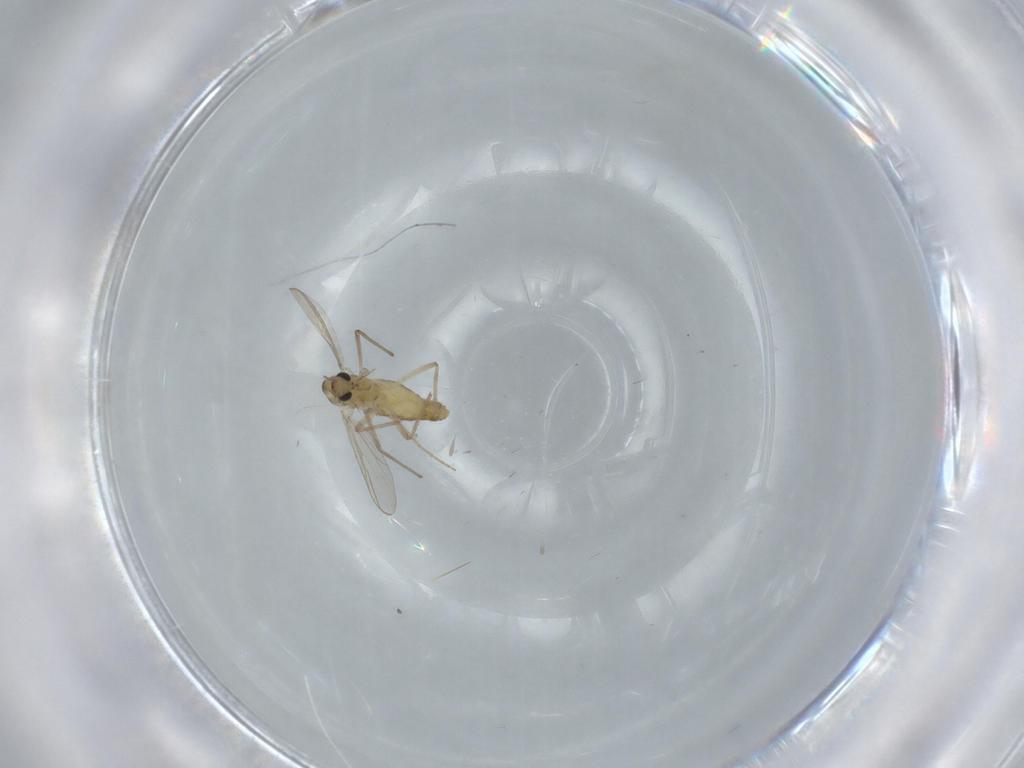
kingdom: Animalia
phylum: Arthropoda
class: Insecta
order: Diptera
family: Chironomidae
